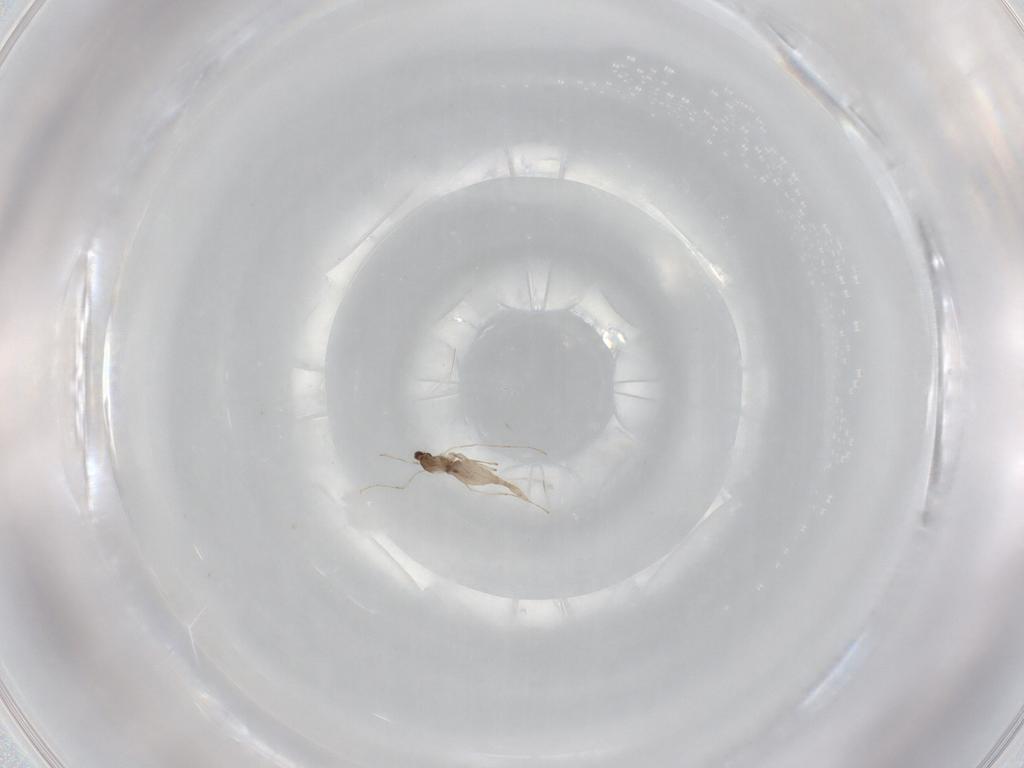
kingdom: Animalia
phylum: Arthropoda
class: Insecta
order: Diptera
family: Cecidomyiidae
